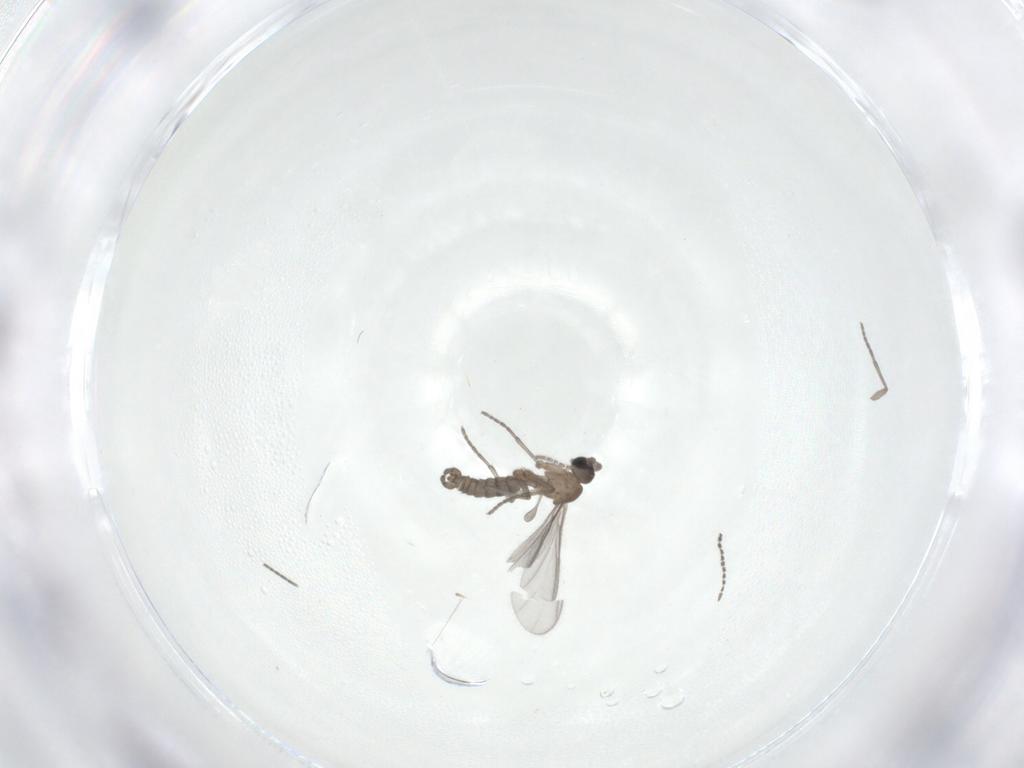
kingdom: Animalia
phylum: Arthropoda
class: Insecta
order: Diptera
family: Sciaridae
